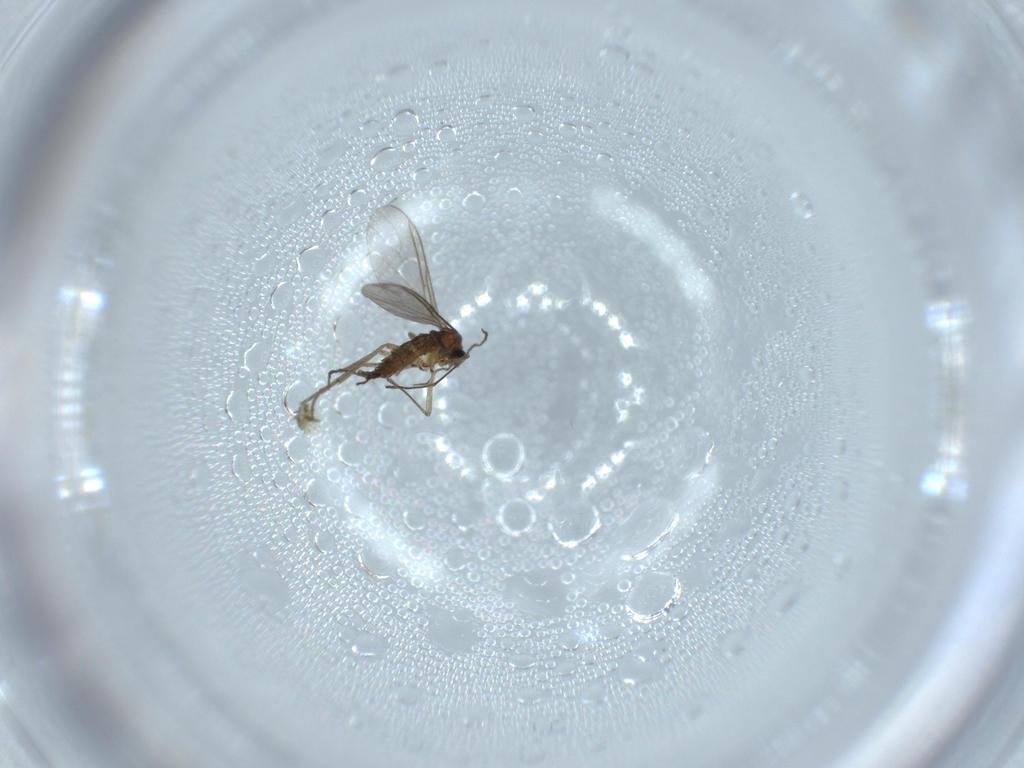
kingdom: Animalia
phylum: Arthropoda
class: Insecta
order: Diptera
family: Sciaridae
